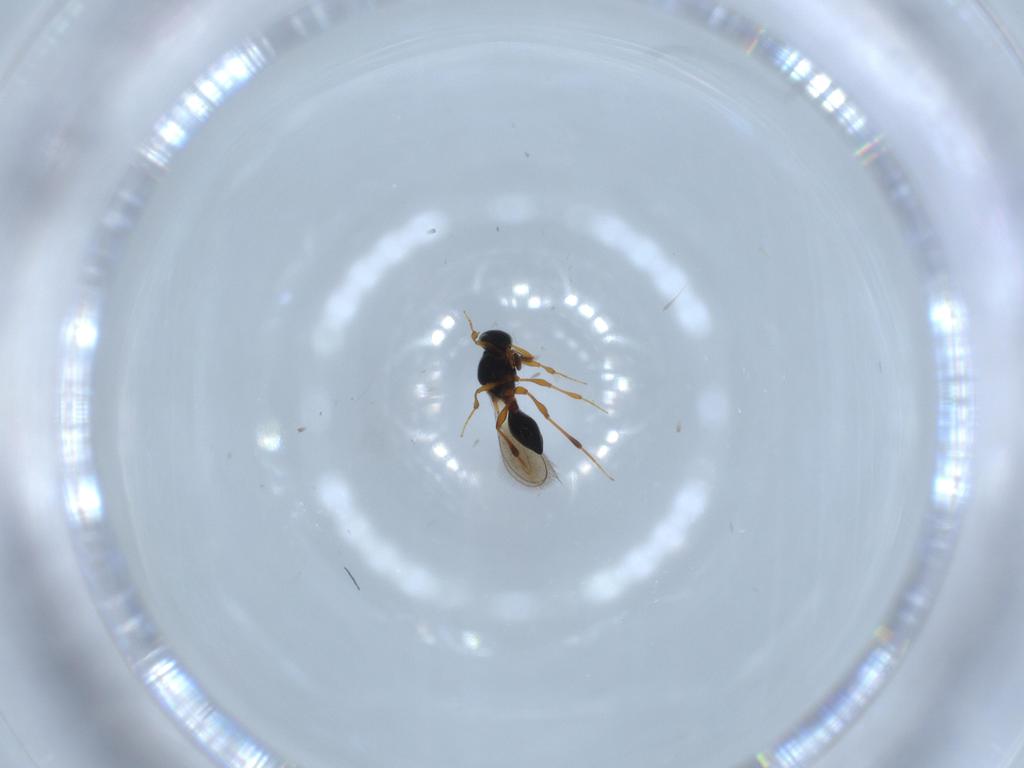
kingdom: Animalia
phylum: Arthropoda
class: Insecta
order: Hymenoptera
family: Platygastridae
